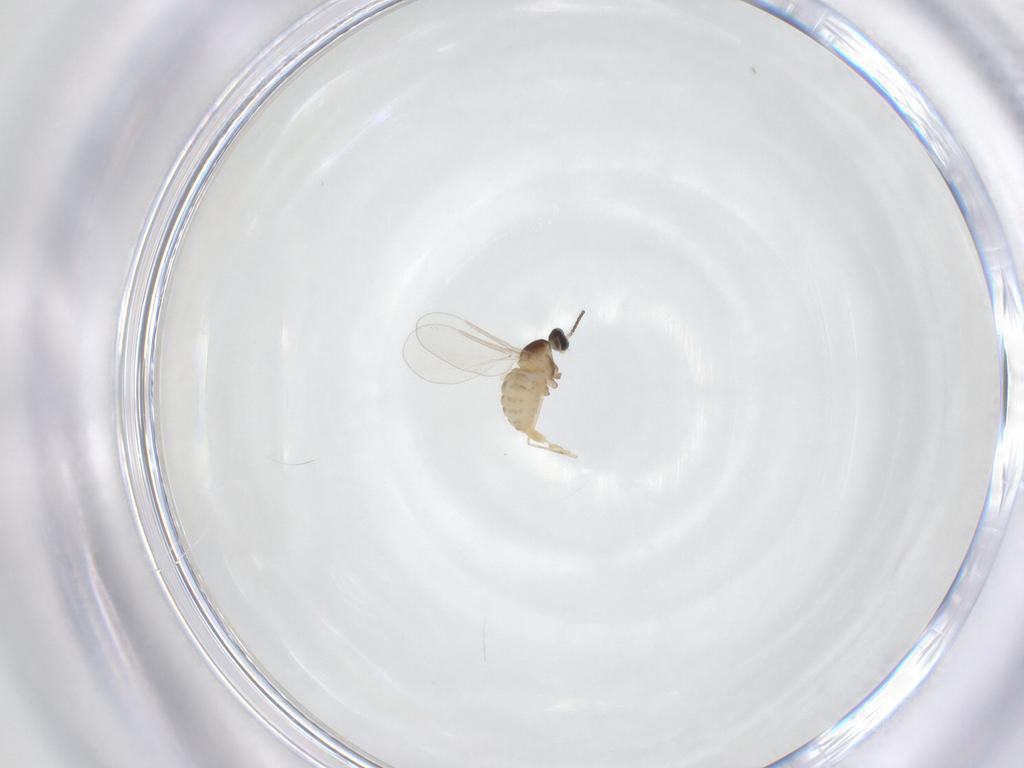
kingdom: Animalia
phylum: Arthropoda
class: Insecta
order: Diptera
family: Cecidomyiidae
